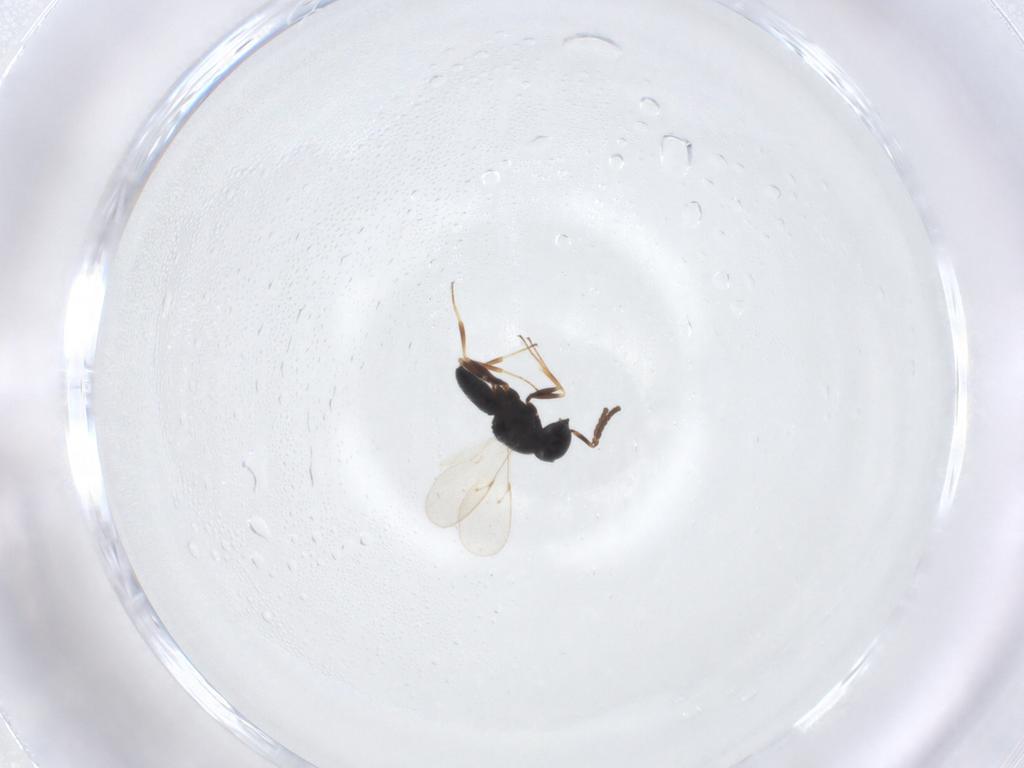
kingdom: Animalia
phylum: Arthropoda
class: Insecta
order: Hymenoptera
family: Scelionidae
